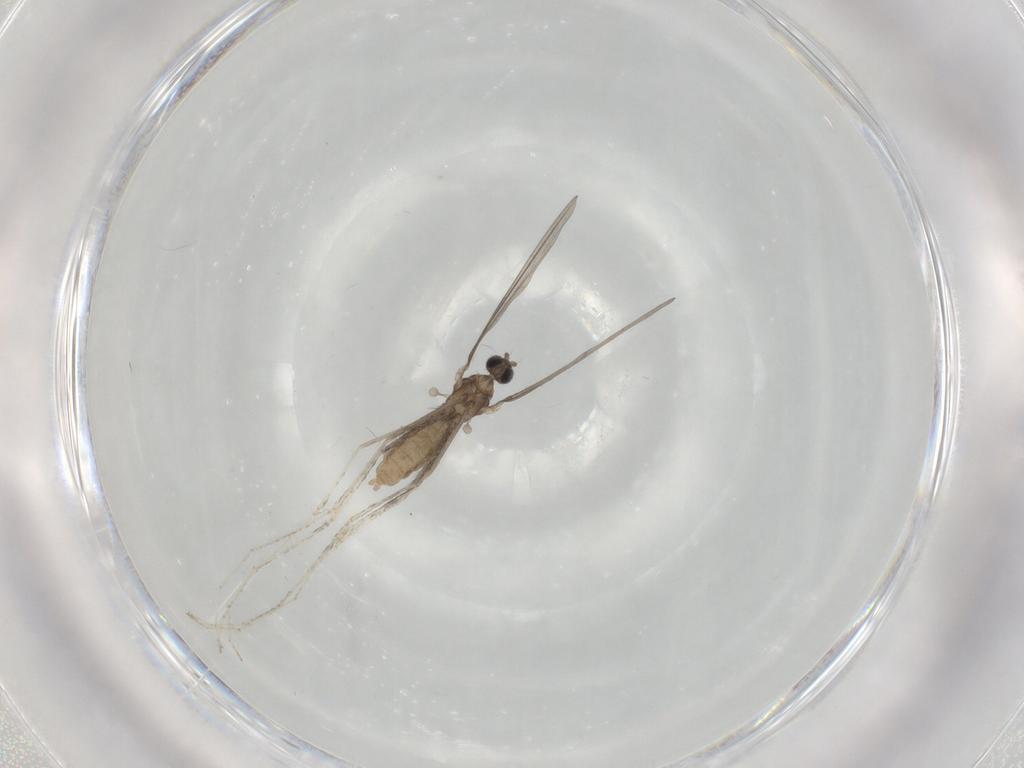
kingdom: Animalia
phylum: Arthropoda
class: Insecta
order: Diptera
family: Cecidomyiidae
